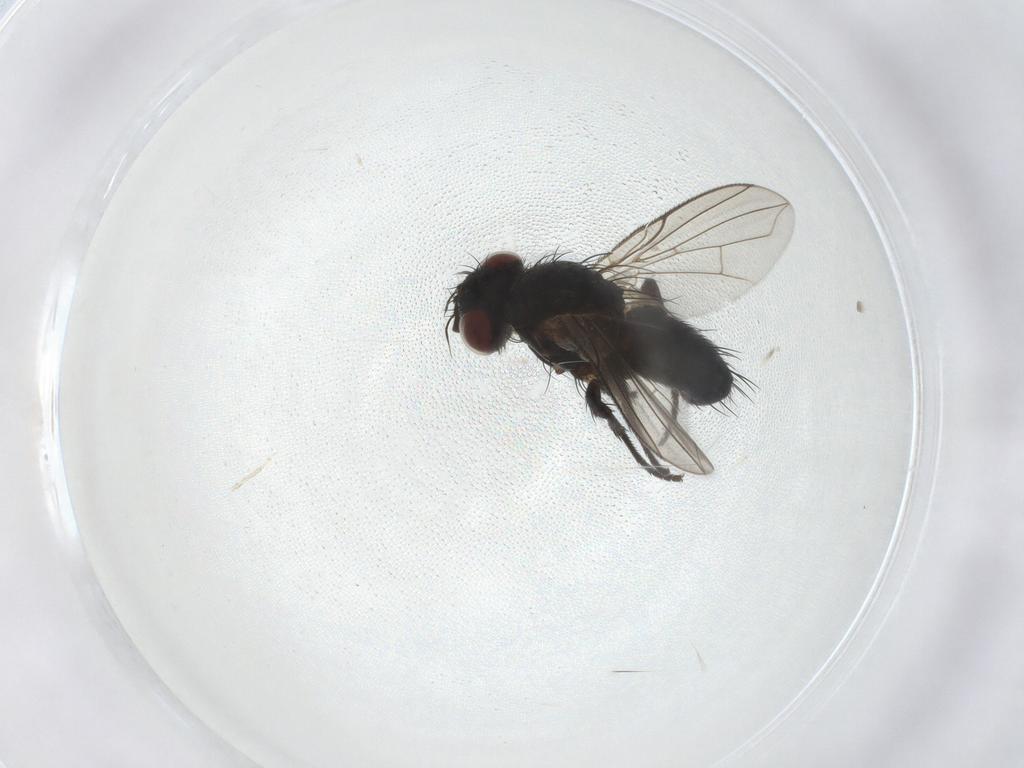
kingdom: Animalia
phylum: Arthropoda
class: Insecta
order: Diptera
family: Tachinidae
